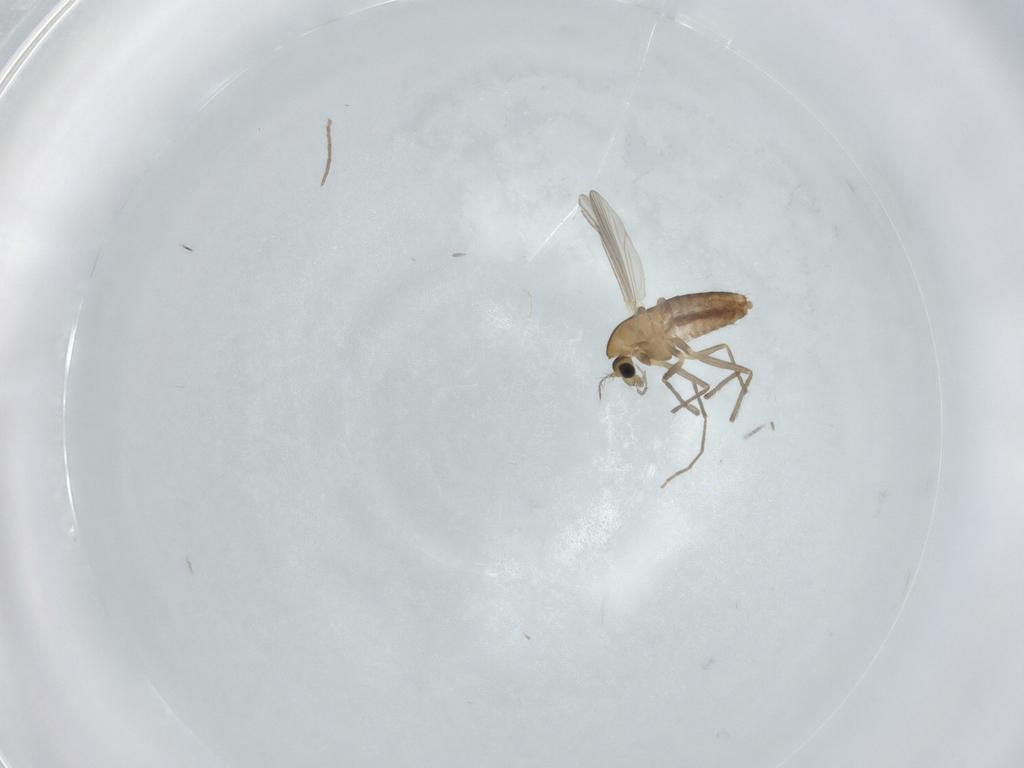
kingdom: Animalia
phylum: Arthropoda
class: Insecta
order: Diptera
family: Chironomidae
